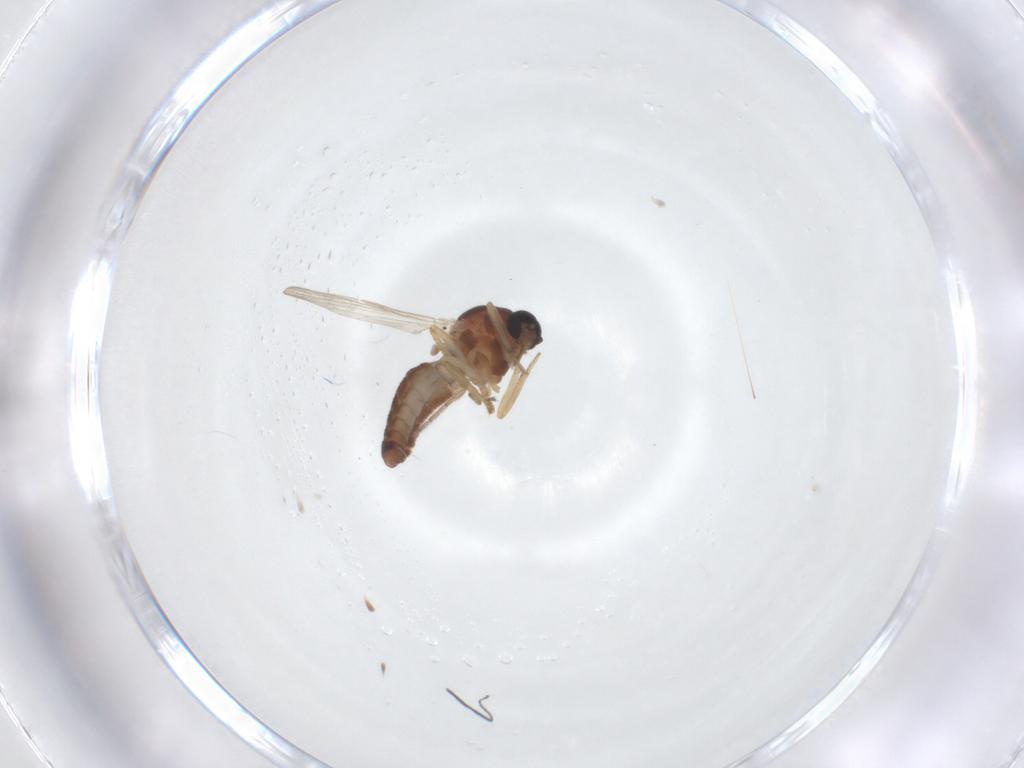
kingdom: Animalia
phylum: Arthropoda
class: Insecta
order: Diptera
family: Ceratopogonidae
